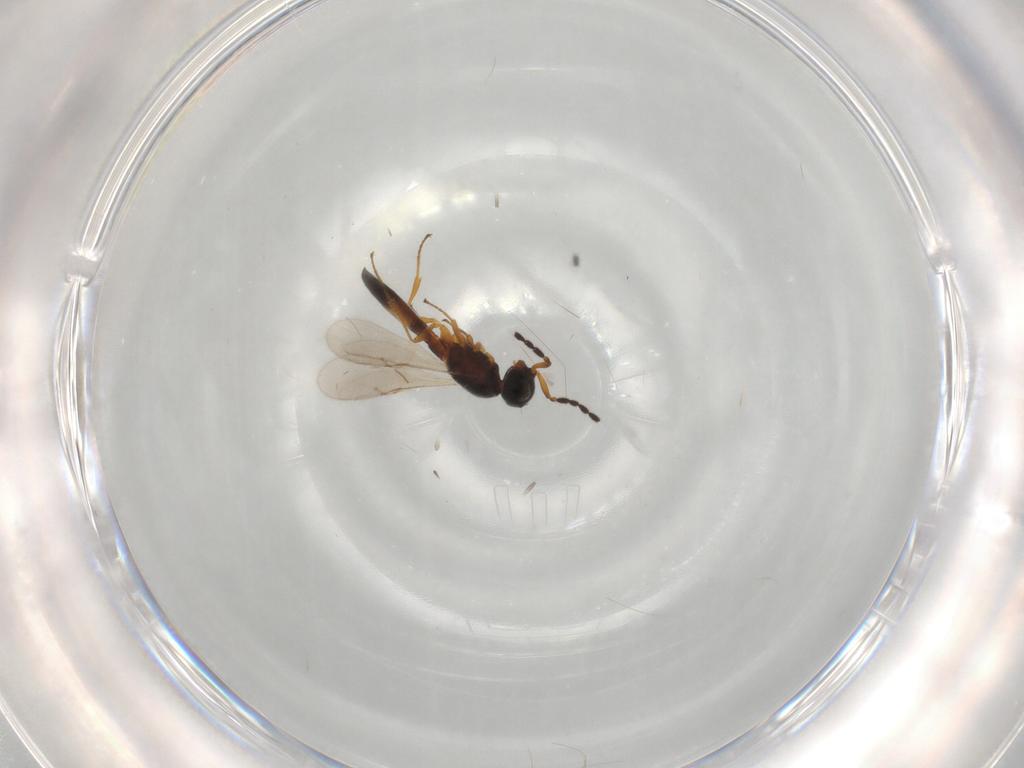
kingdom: Animalia
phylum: Arthropoda
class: Insecta
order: Hymenoptera
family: Scelionidae
